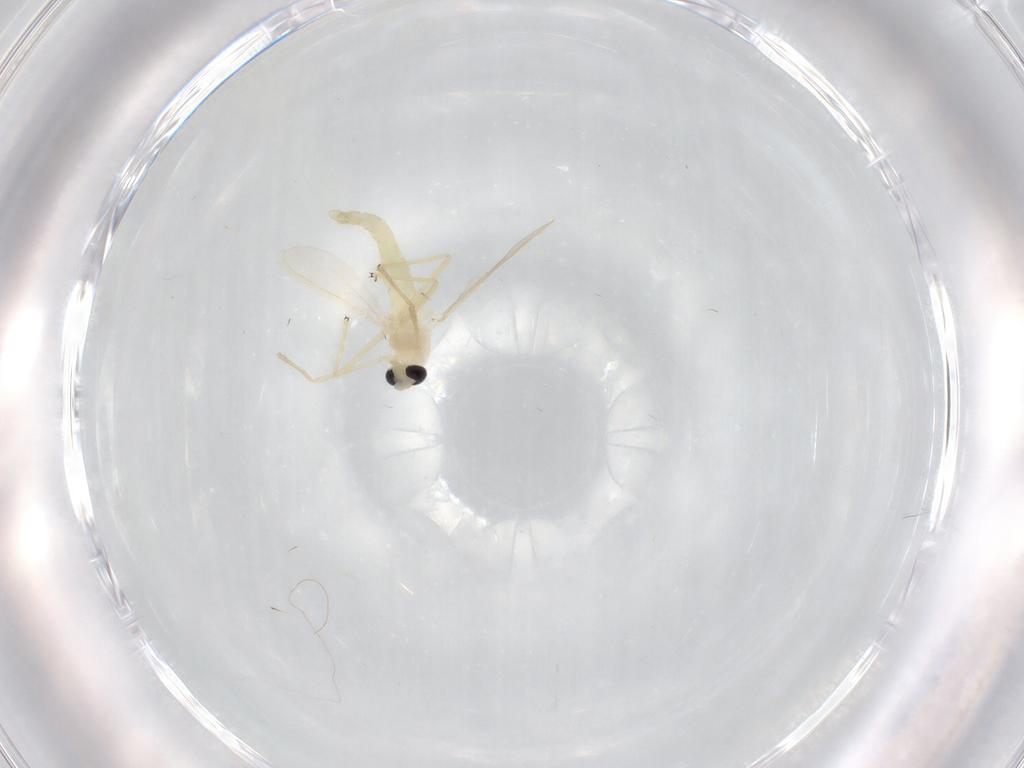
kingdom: Animalia
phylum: Arthropoda
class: Insecta
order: Diptera
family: Chironomidae
